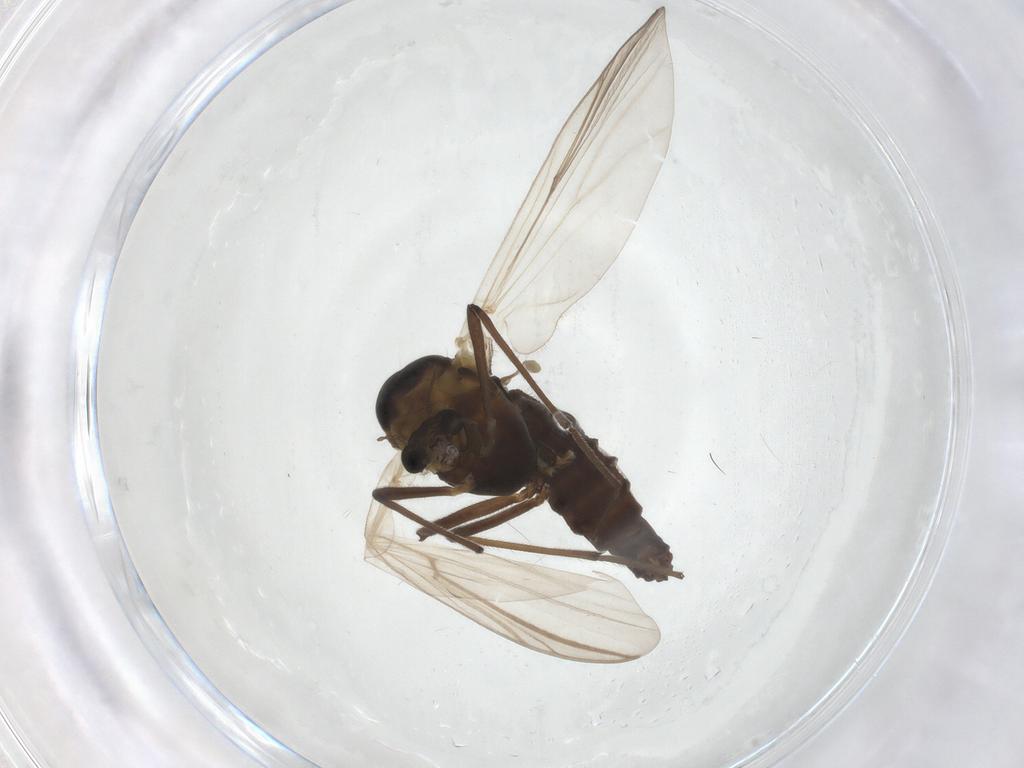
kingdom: Animalia
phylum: Arthropoda
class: Insecta
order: Diptera
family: Chironomidae
